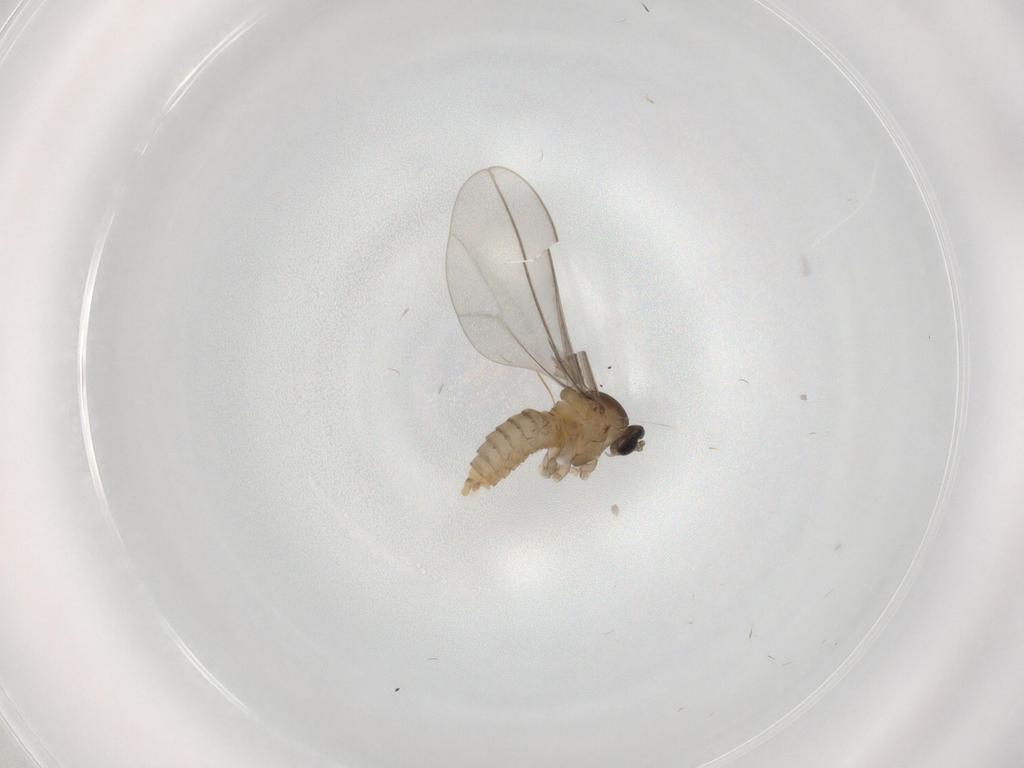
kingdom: Animalia
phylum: Arthropoda
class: Insecta
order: Diptera
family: Cecidomyiidae
